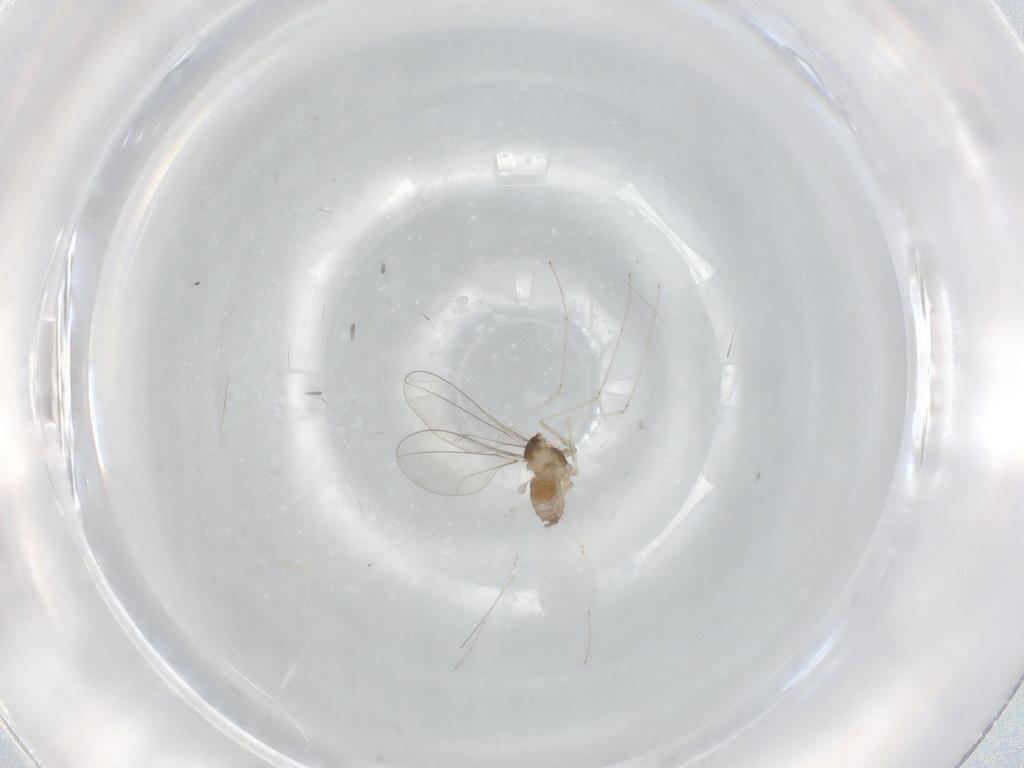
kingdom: Animalia
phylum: Arthropoda
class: Insecta
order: Diptera
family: Cecidomyiidae
